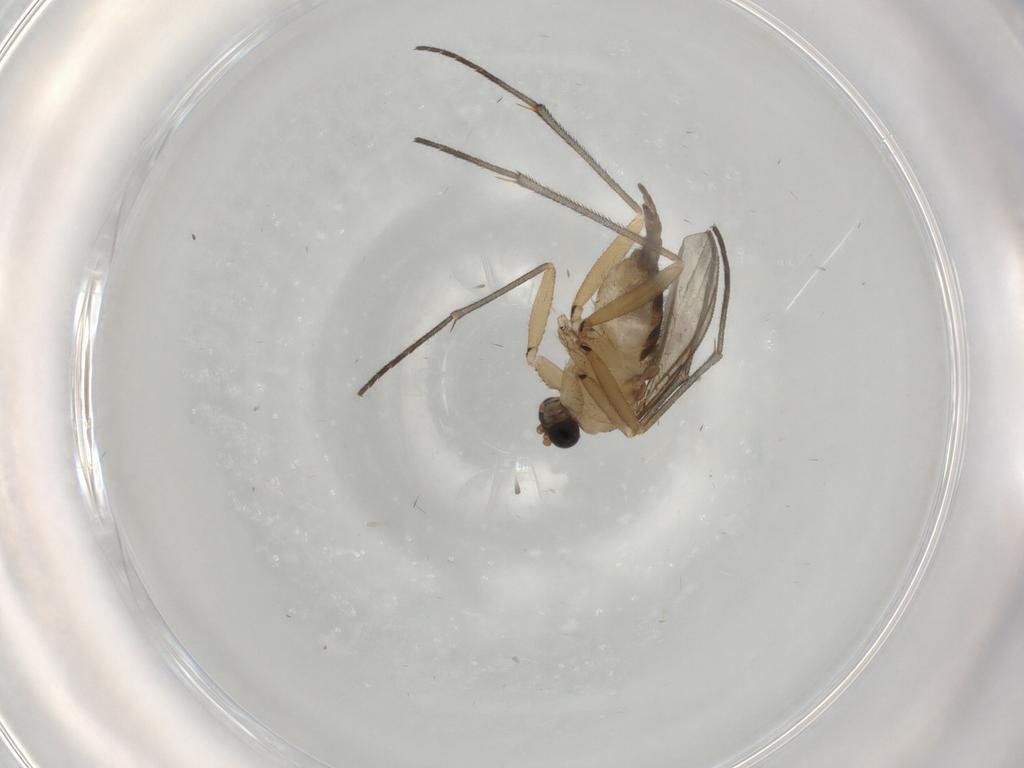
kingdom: Animalia
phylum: Arthropoda
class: Insecta
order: Diptera
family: Sciaridae
